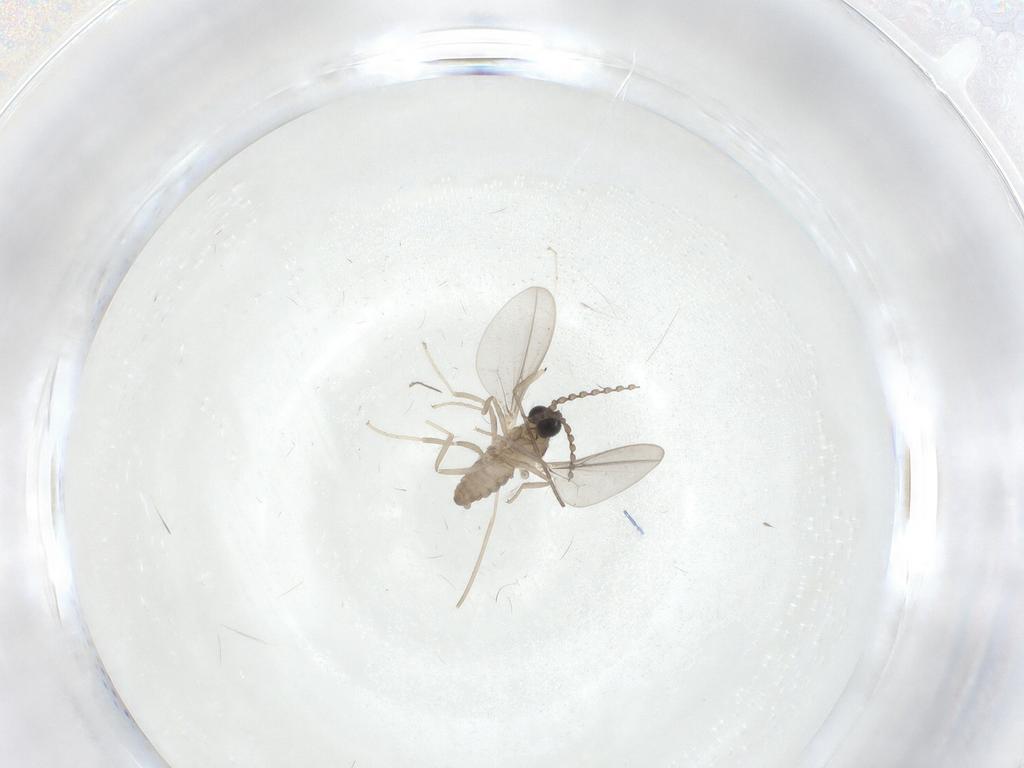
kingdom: Animalia
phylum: Arthropoda
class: Insecta
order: Diptera
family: Sciaridae
